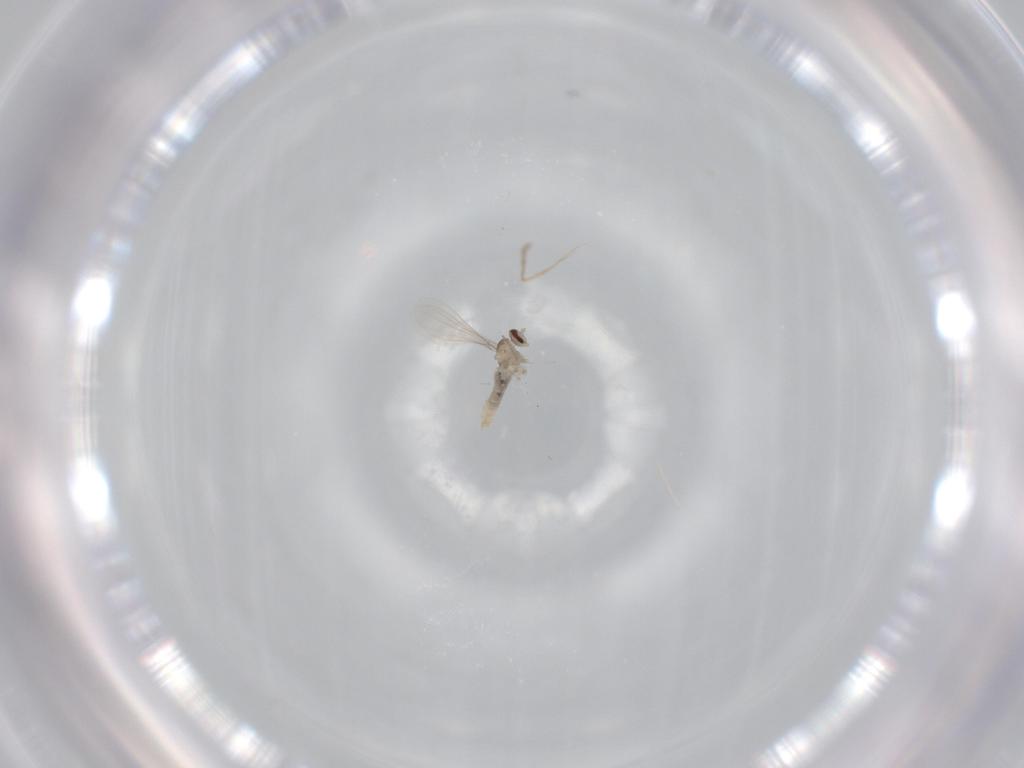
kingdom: Animalia
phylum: Arthropoda
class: Insecta
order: Diptera
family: Cecidomyiidae
